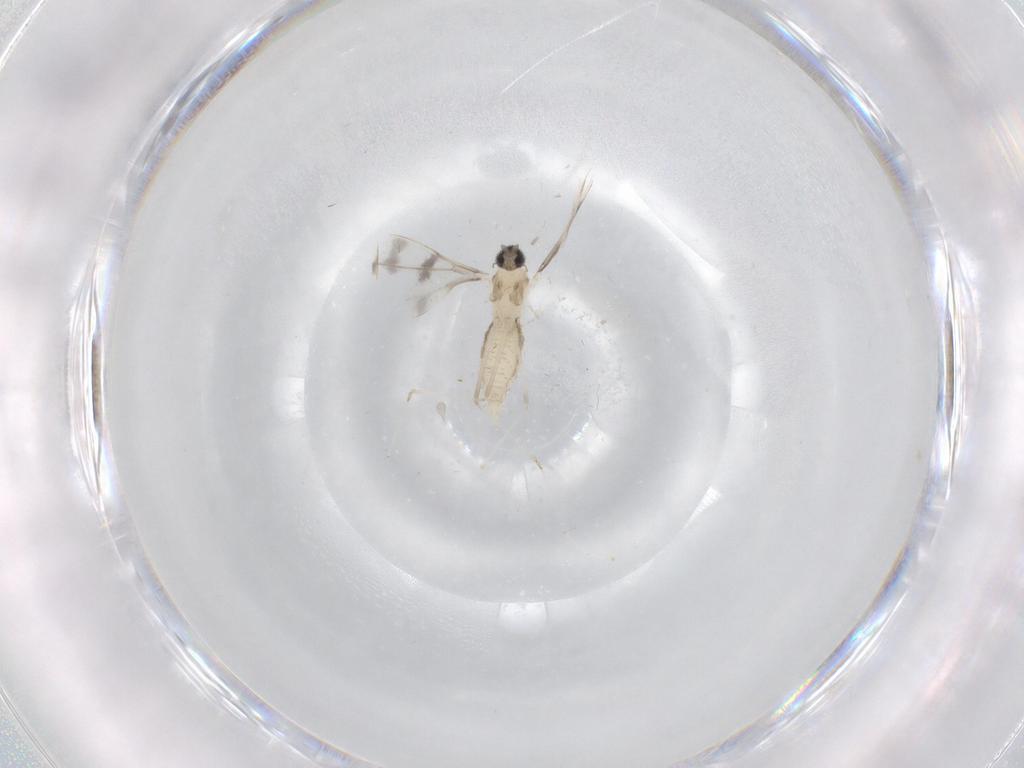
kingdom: Animalia
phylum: Arthropoda
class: Insecta
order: Diptera
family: Cecidomyiidae
